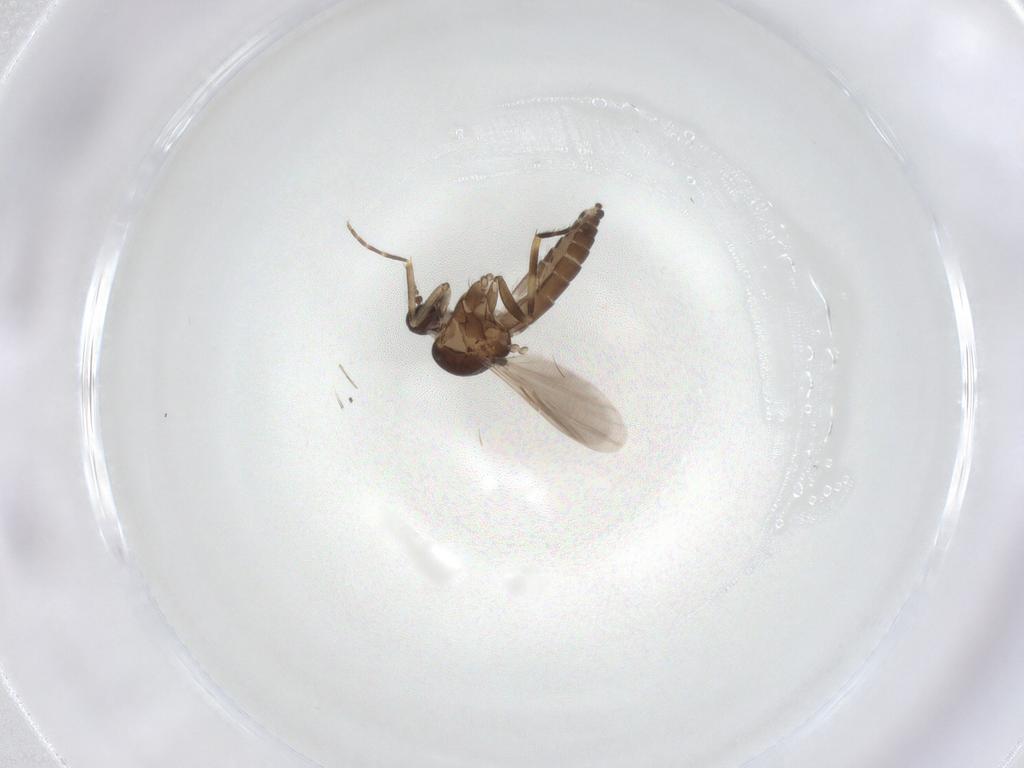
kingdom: Animalia
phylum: Arthropoda
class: Insecta
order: Diptera
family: Ceratopogonidae
